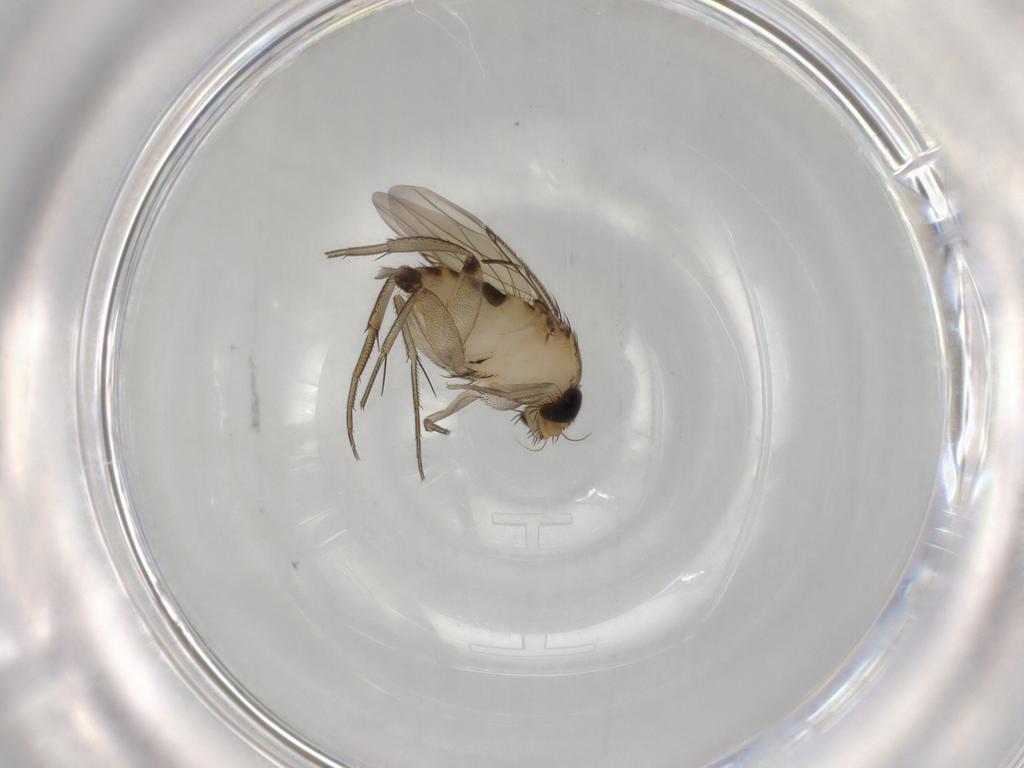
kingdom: Animalia
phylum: Arthropoda
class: Insecta
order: Diptera
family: Phoridae
